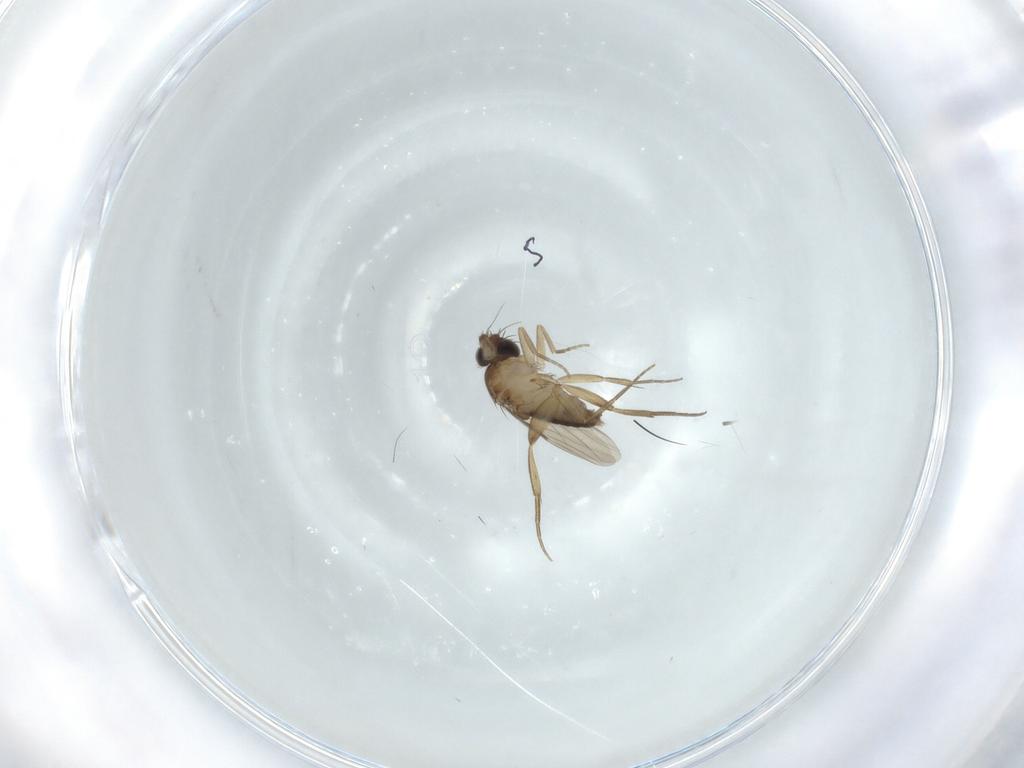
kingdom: Animalia
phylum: Arthropoda
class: Insecta
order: Diptera
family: Phoridae
